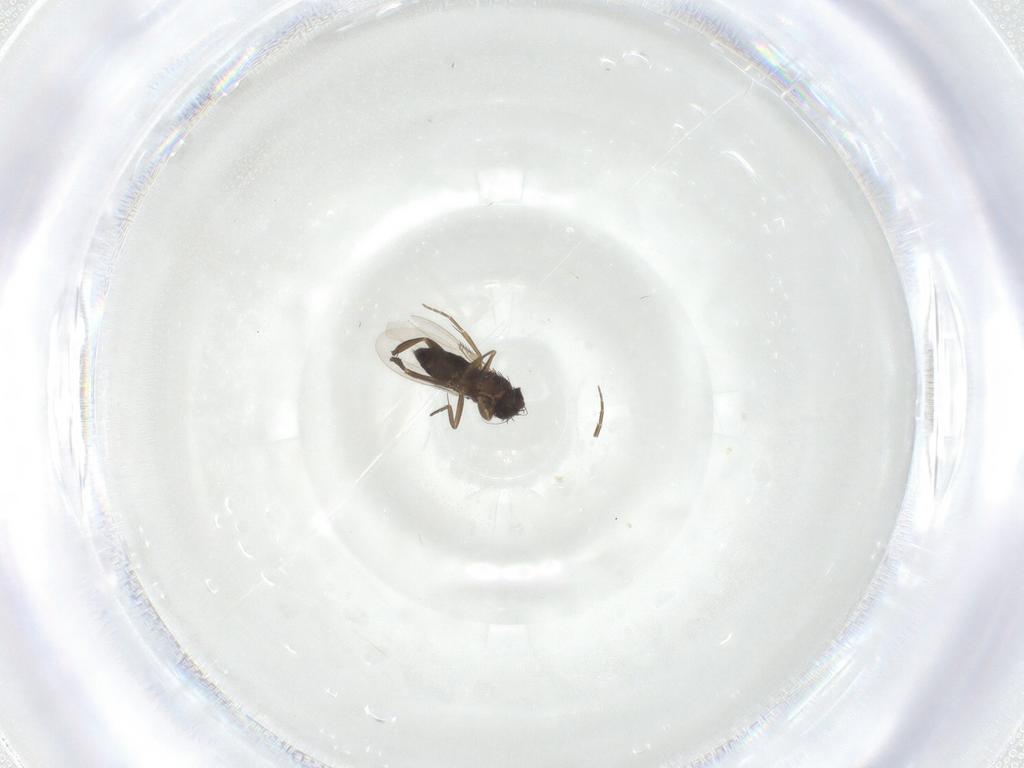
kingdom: Animalia
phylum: Arthropoda
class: Insecta
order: Diptera
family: Phoridae
